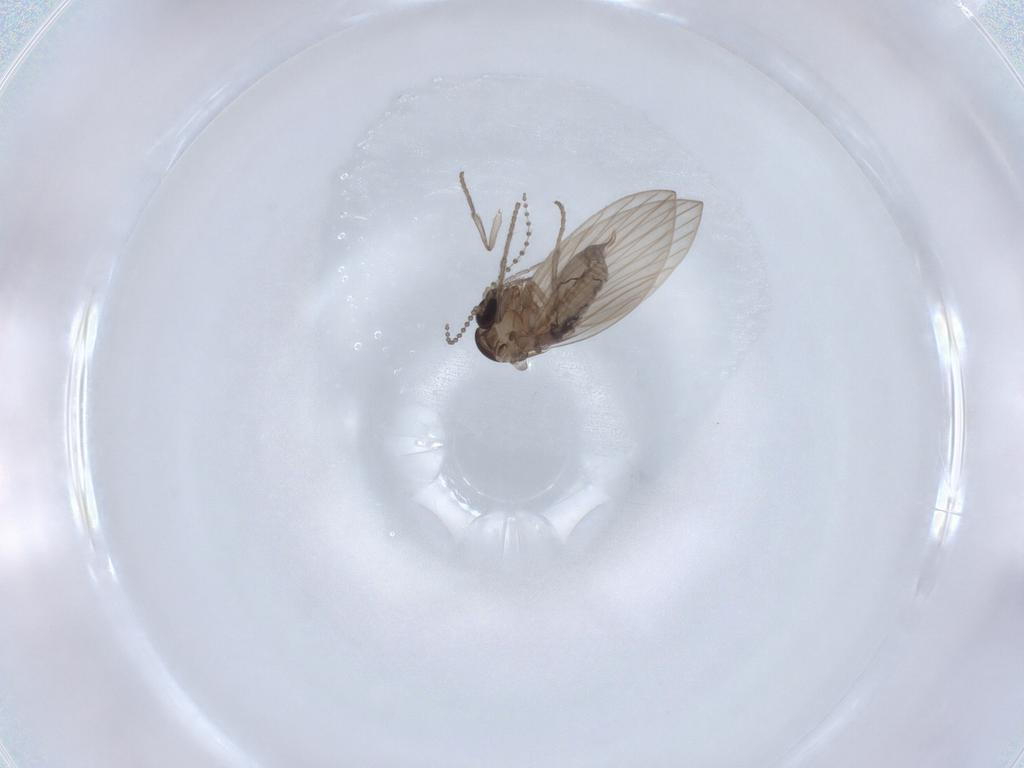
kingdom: Animalia
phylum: Arthropoda
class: Insecta
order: Diptera
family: Psychodidae
